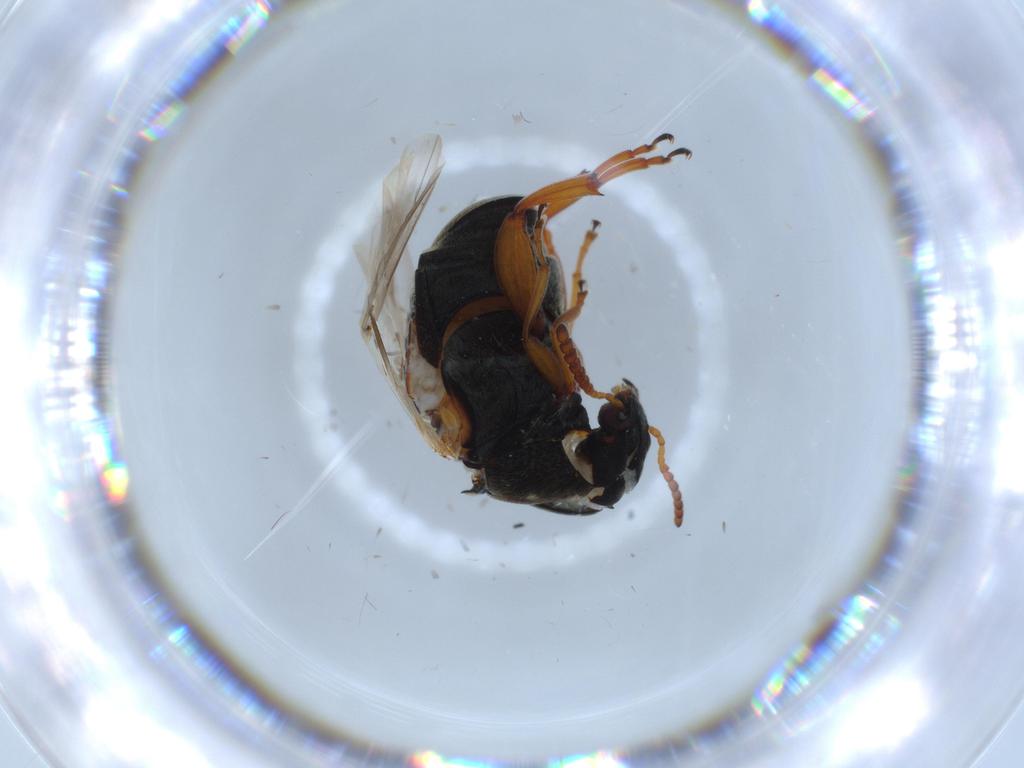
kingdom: Animalia
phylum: Arthropoda
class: Insecta
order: Coleoptera
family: Chrysomelidae
